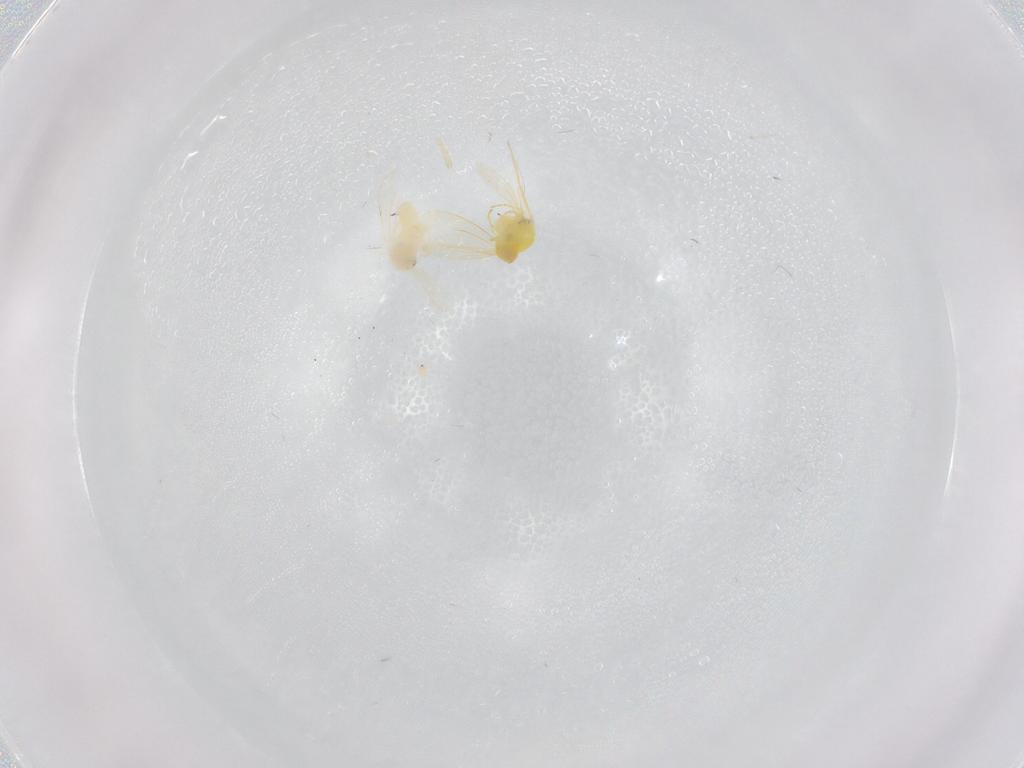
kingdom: Animalia
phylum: Arthropoda
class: Insecta
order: Hemiptera
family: Aleyrodidae
